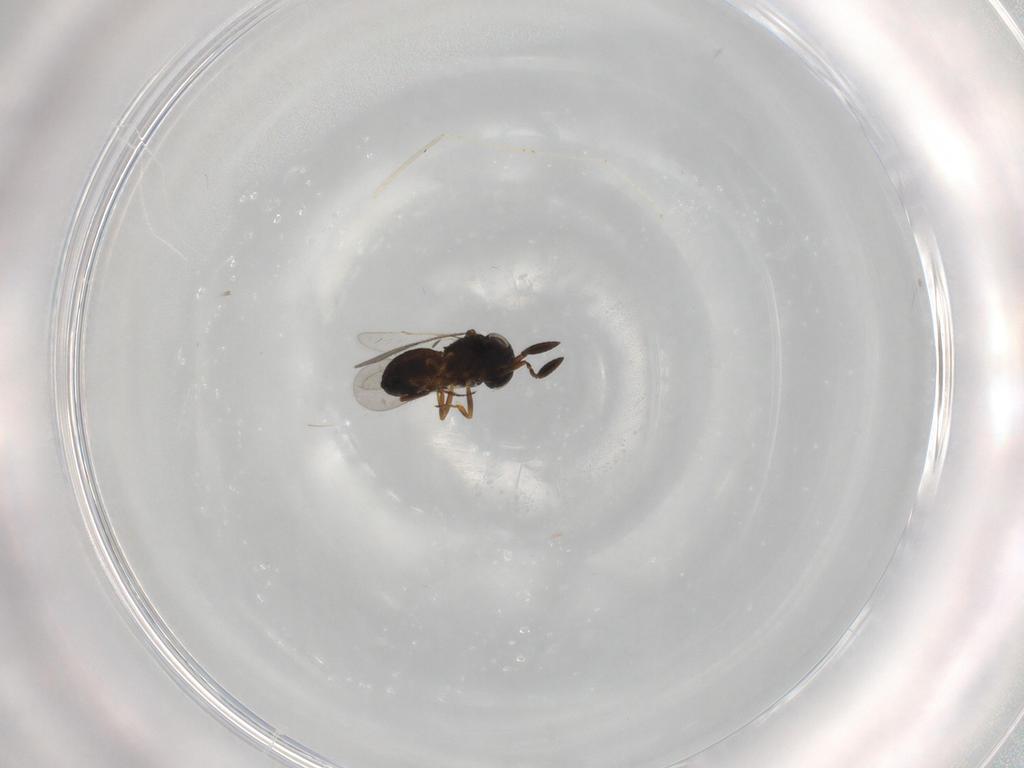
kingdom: Animalia
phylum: Arthropoda
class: Insecta
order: Hymenoptera
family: Scelionidae
